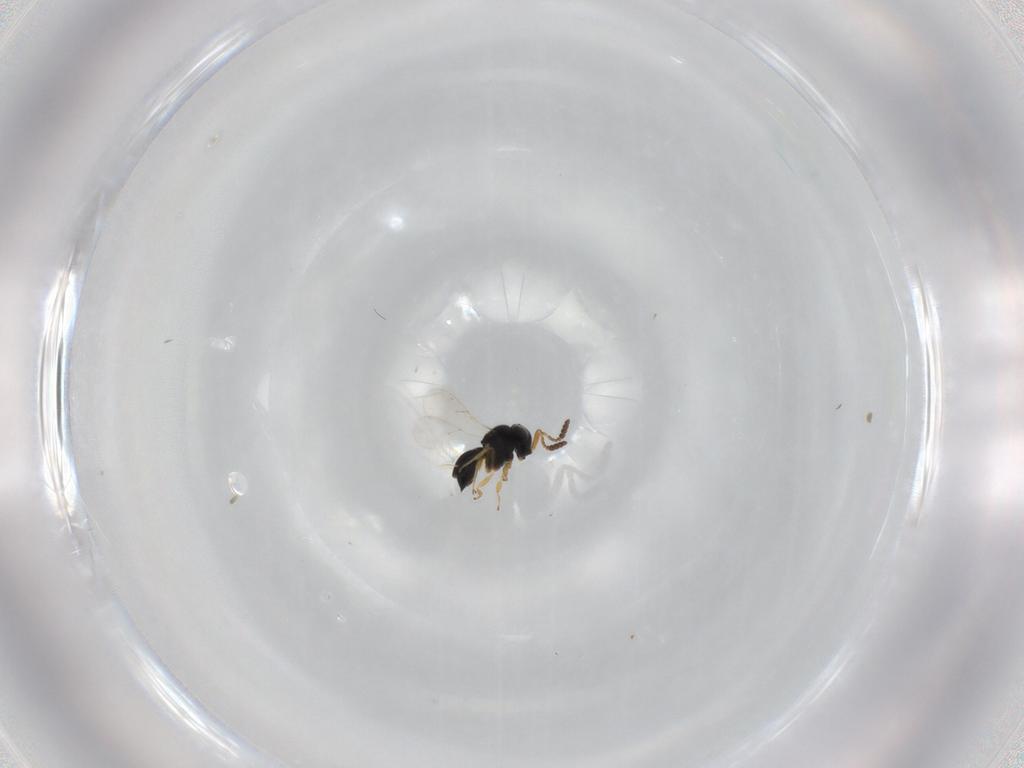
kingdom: Animalia
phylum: Arthropoda
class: Insecta
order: Hymenoptera
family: Scelionidae
